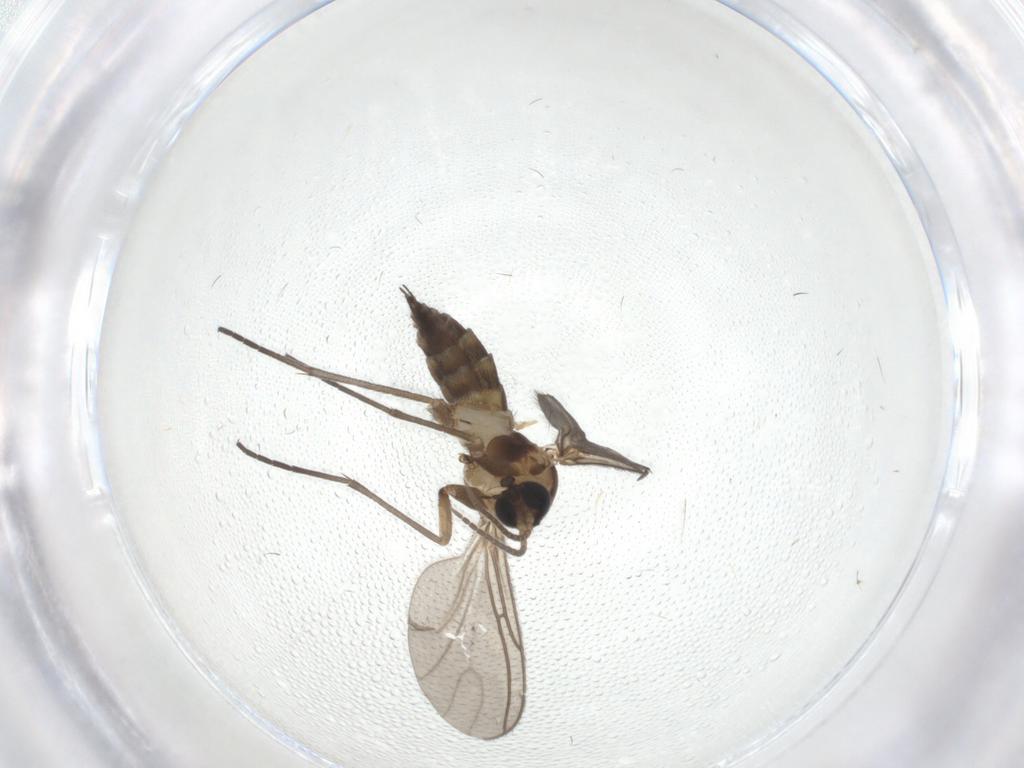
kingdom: Animalia
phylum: Arthropoda
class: Insecta
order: Diptera
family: Sciaridae
